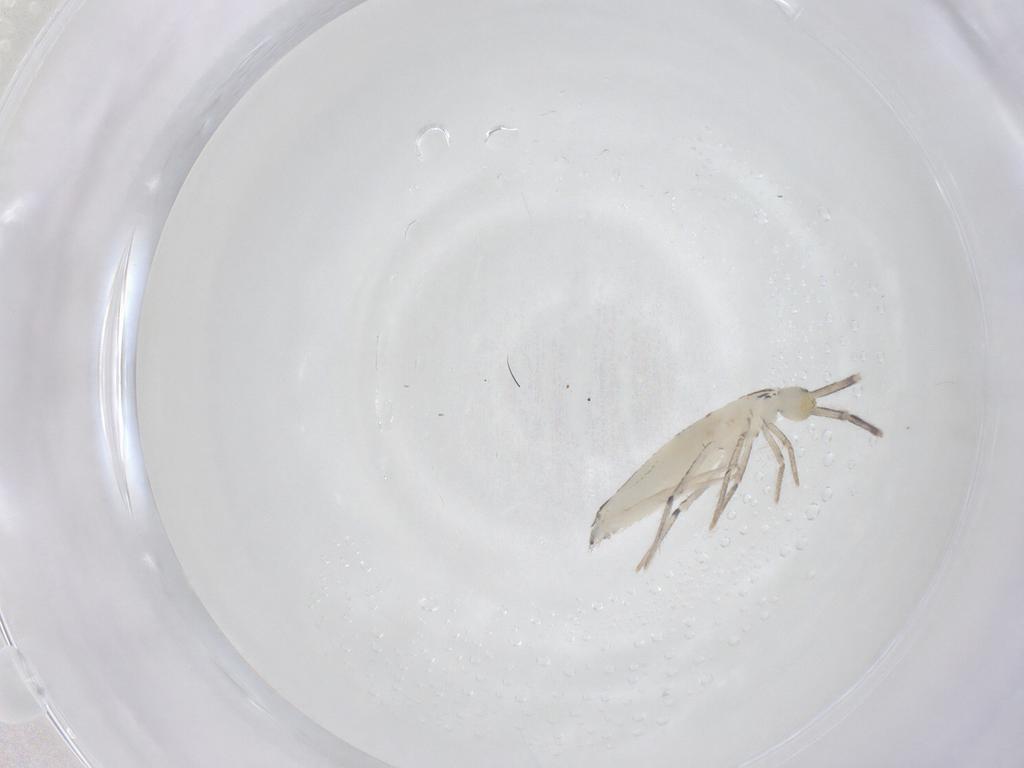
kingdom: Animalia
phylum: Arthropoda
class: Collembola
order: Entomobryomorpha
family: Entomobryidae
